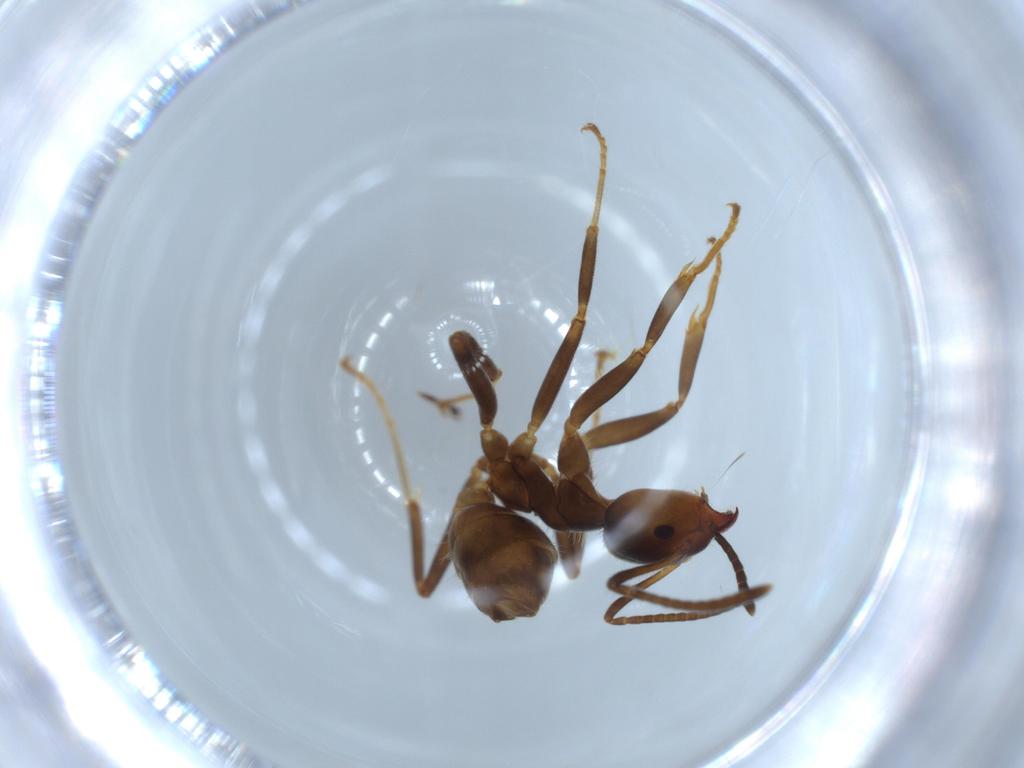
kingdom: Animalia
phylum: Arthropoda
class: Insecta
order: Hymenoptera
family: Formicidae
